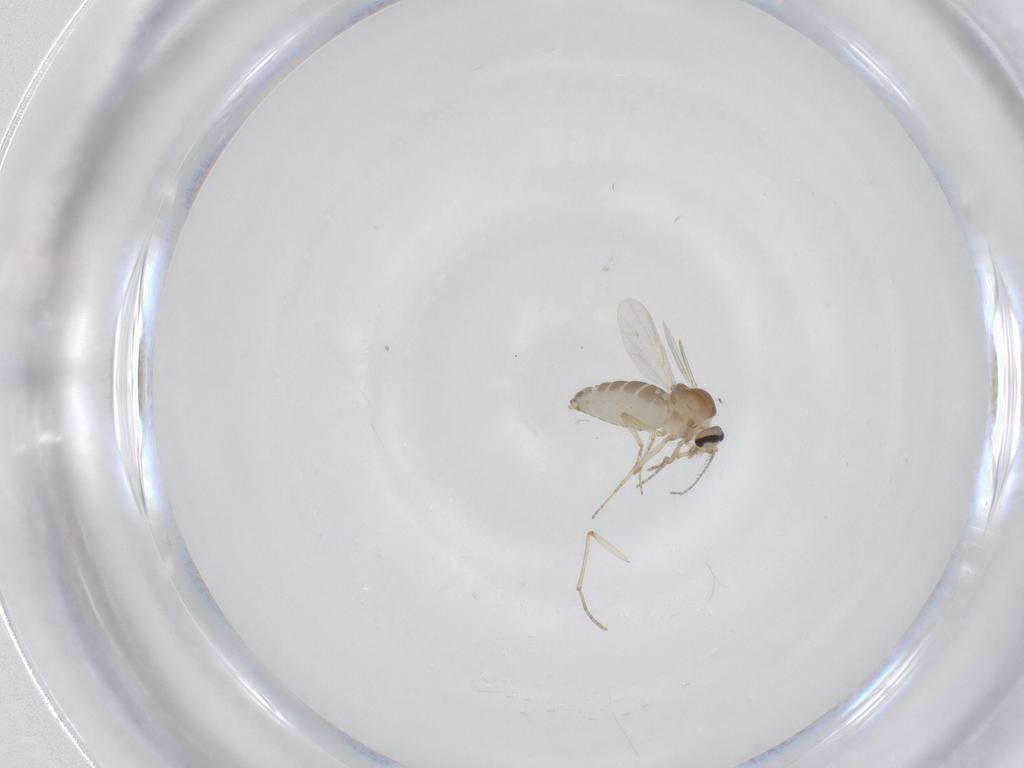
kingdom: Animalia
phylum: Arthropoda
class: Insecta
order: Diptera
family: Ceratopogonidae
